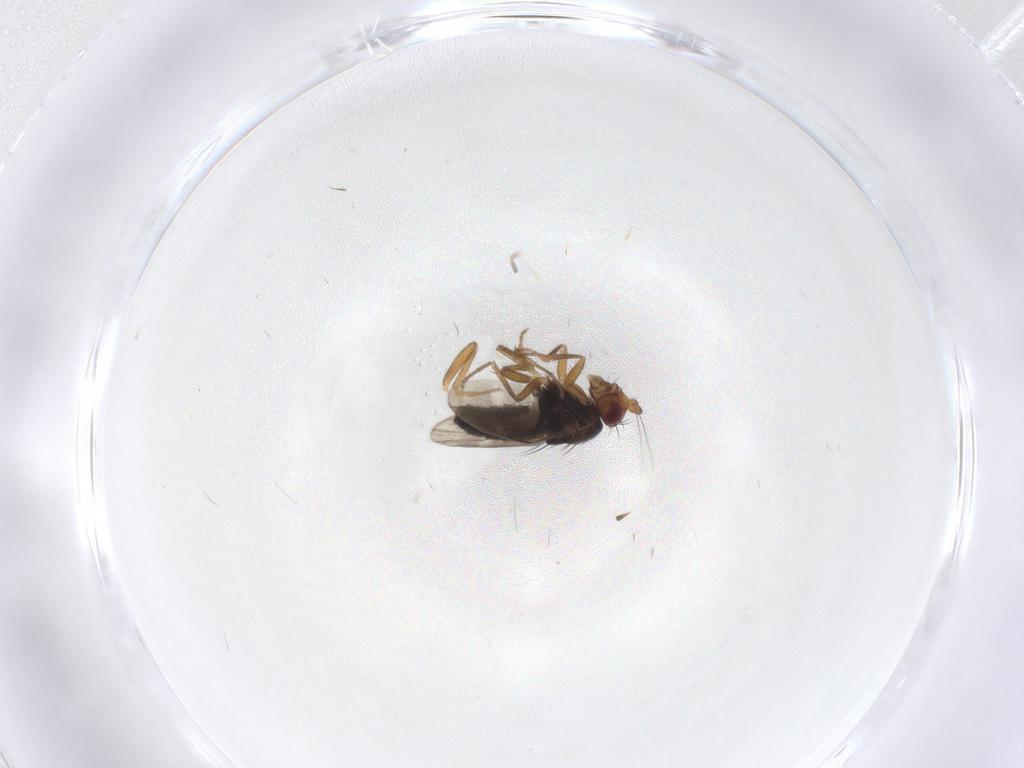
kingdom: Animalia
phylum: Arthropoda
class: Insecta
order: Diptera
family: Sphaeroceridae
